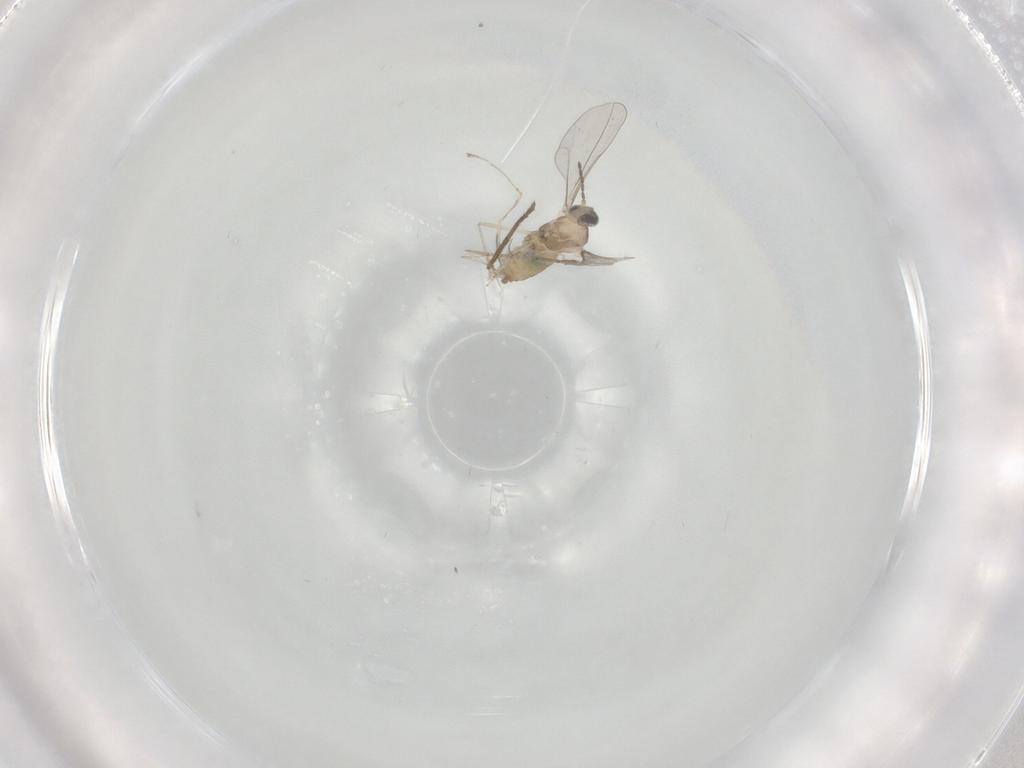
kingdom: Animalia
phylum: Arthropoda
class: Insecta
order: Diptera
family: Cecidomyiidae
